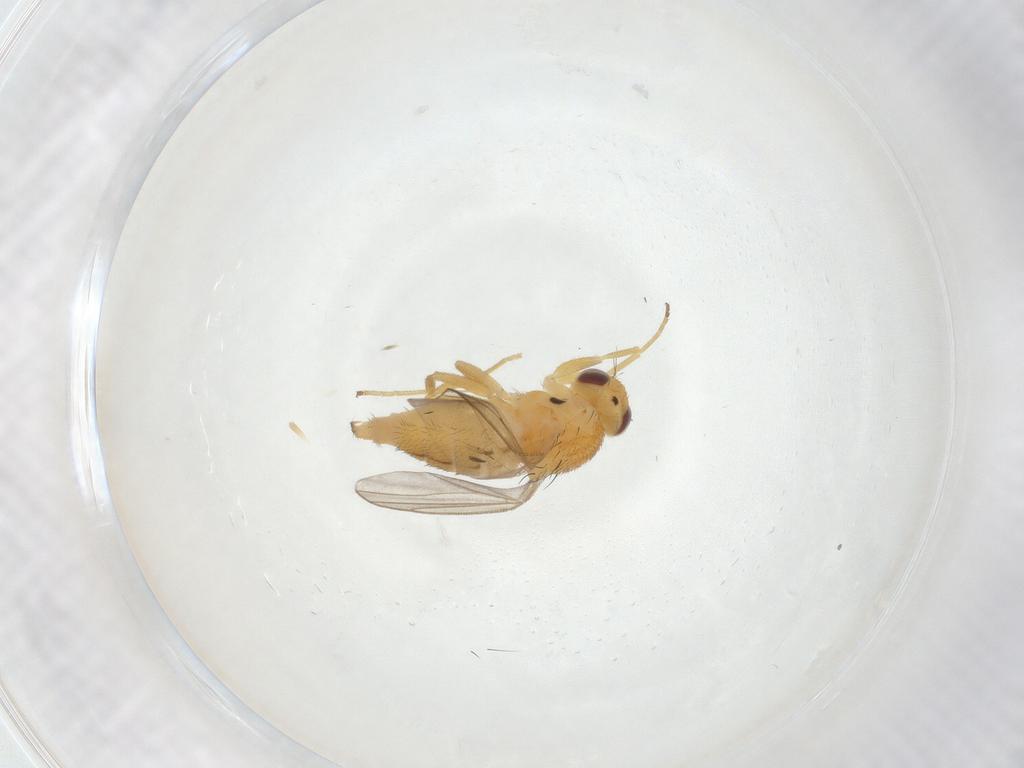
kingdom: Animalia
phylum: Arthropoda
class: Insecta
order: Diptera
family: Chloropidae
